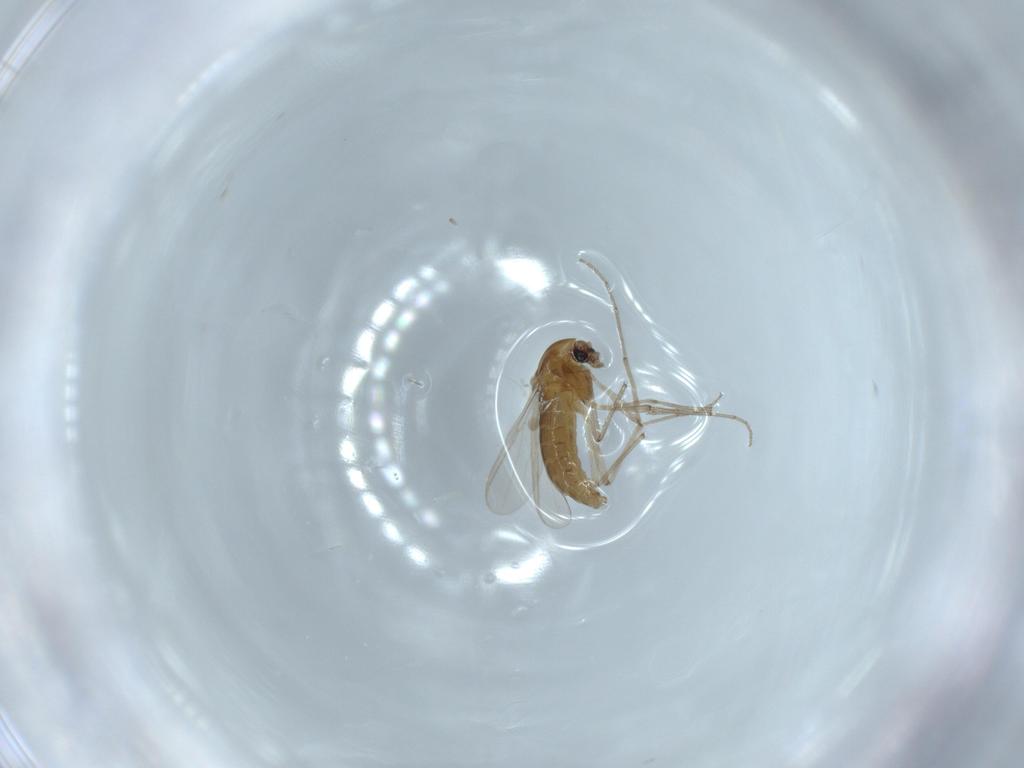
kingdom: Animalia
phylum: Arthropoda
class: Insecta
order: Diptera
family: Chironomidae
